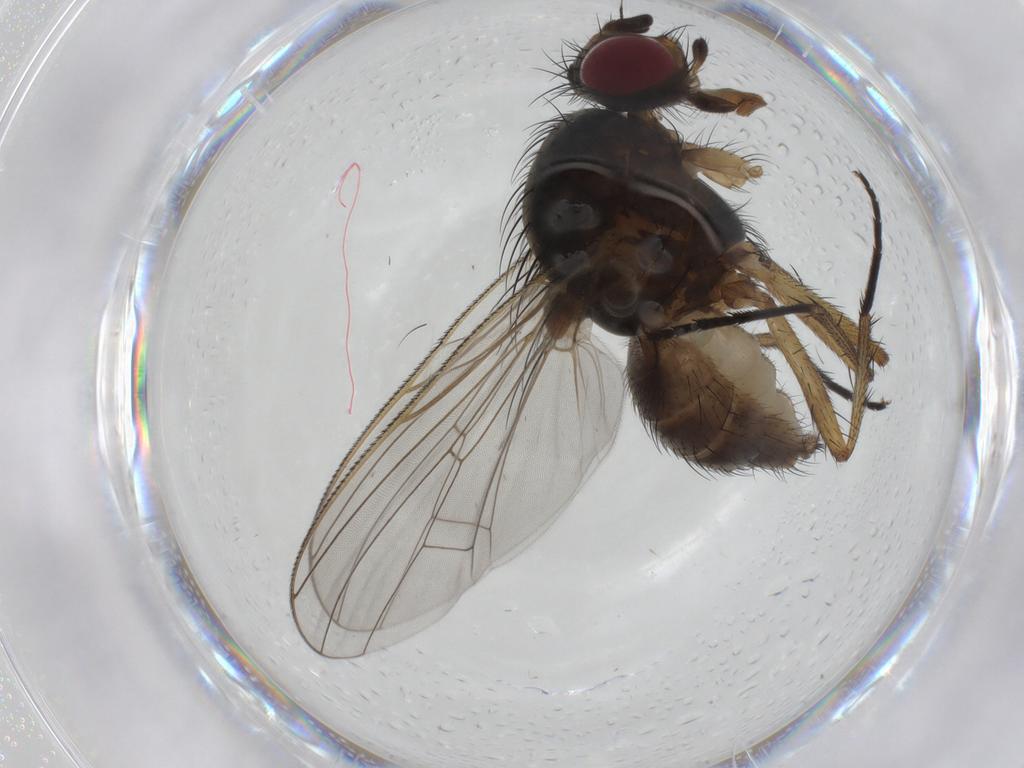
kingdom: Animalia
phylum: Arthropoda
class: Insecta
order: Diptera
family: Anthomyiidae
